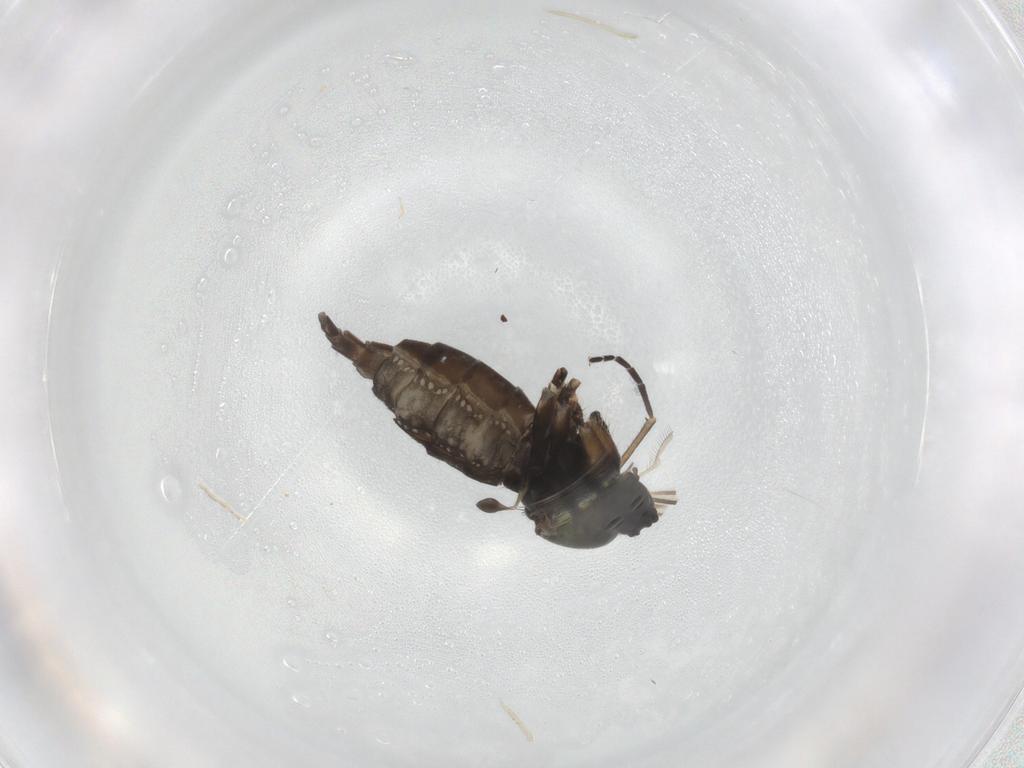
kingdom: Animalia
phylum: Arthropoda
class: Insecta
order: Diptera
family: Sciaridae
